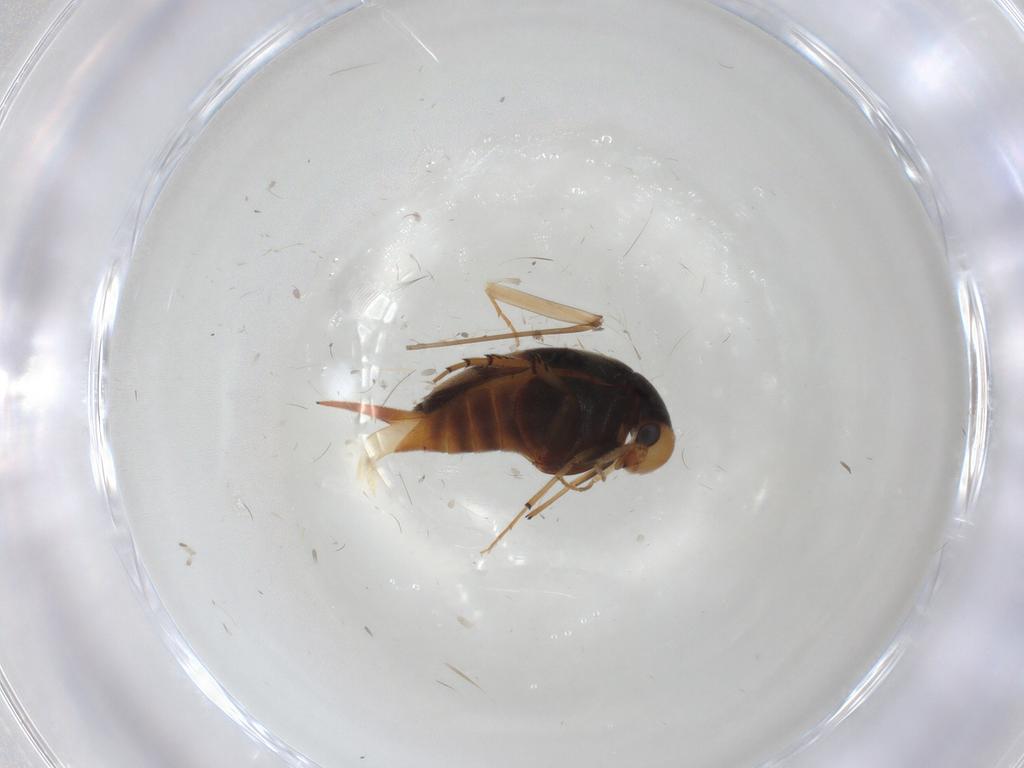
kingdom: Animalia
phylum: Arthropoda
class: Insecta
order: Coleoptera
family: Mordellidae
